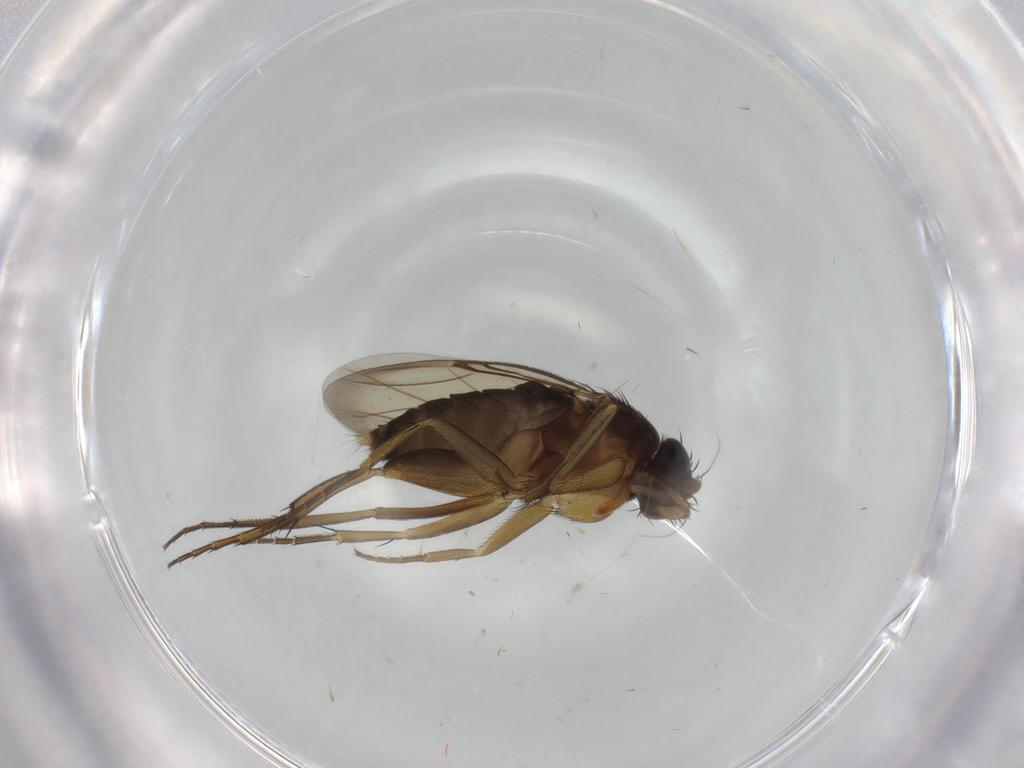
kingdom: Animalia
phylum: Arthropoda
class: Insecta
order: Diptera
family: Phoridae
